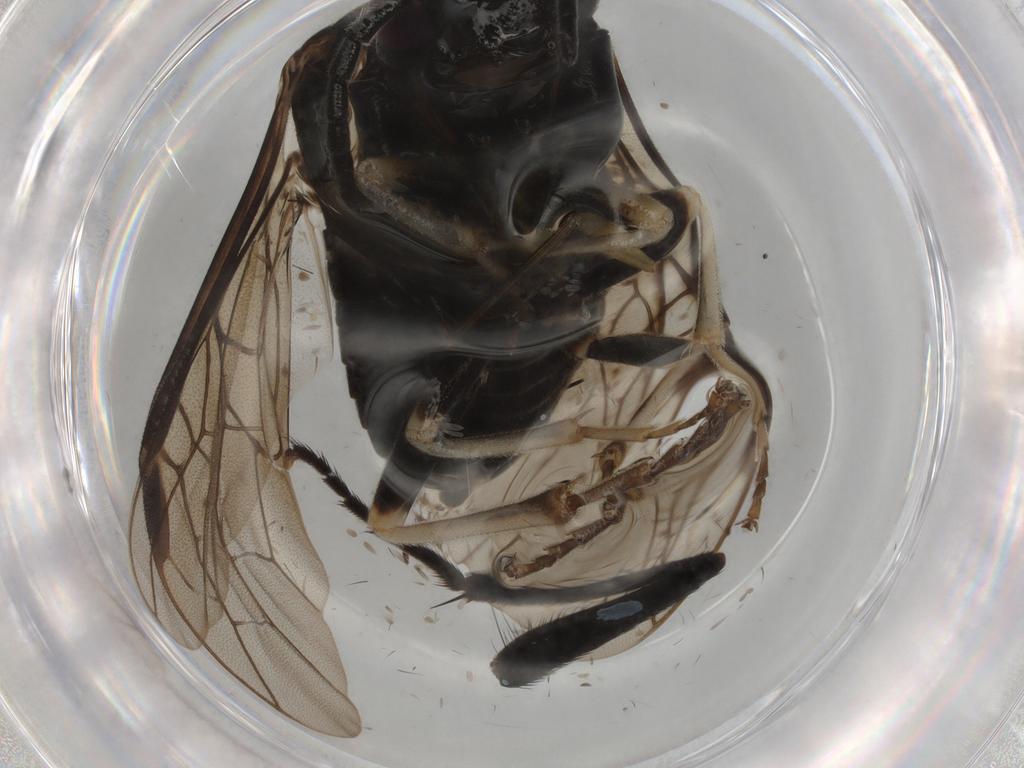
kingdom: Animalia
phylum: Arthropoda
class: Insecta
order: Hymenoptera
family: Tenthredinidae
